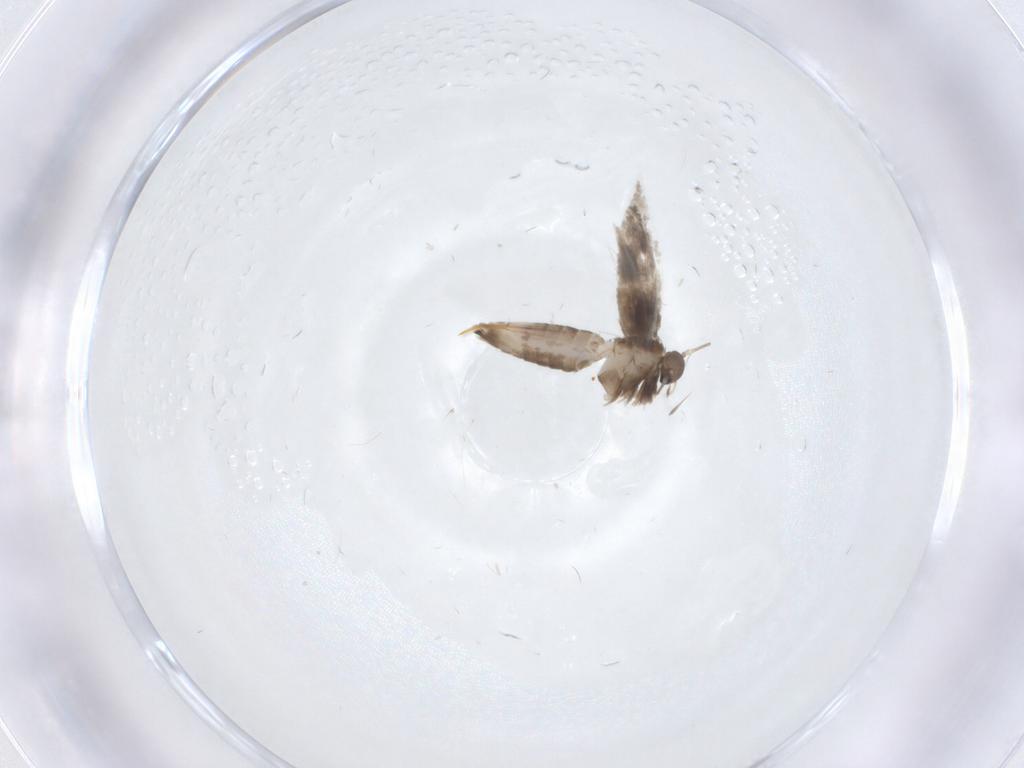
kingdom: Animalia
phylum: Arthropoda
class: Insecta
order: Lepidoptera
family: Heliozelidae
